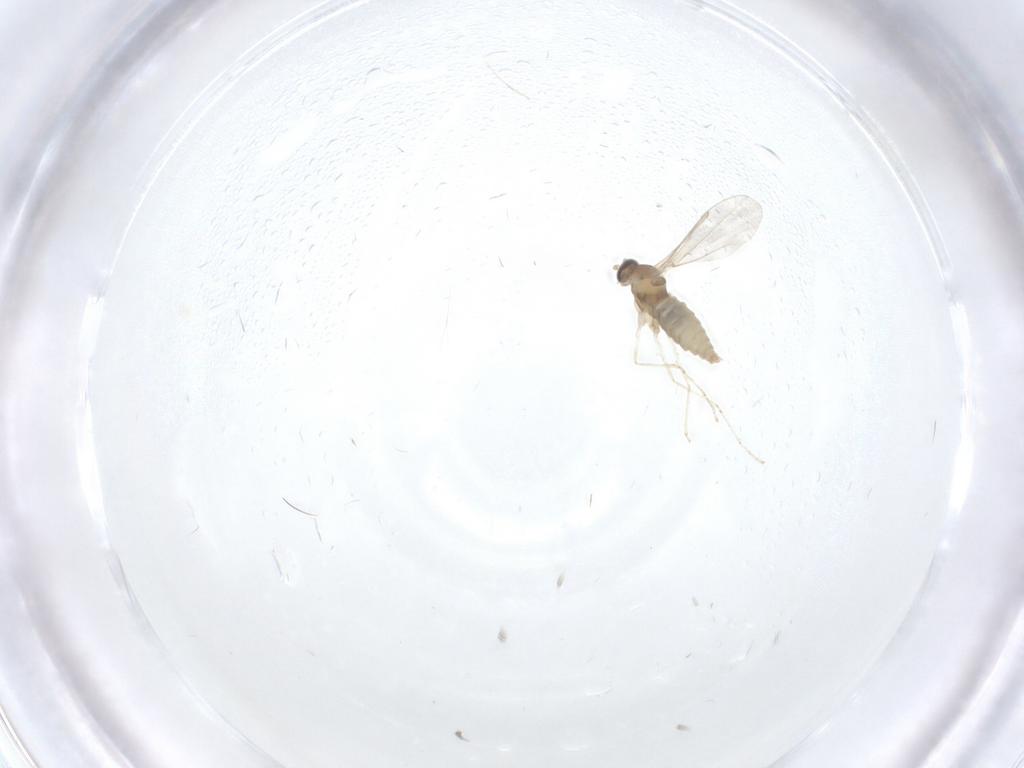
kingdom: Animalia
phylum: Arthropoda
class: Insecta
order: Diptera
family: Cecidomyiidae
